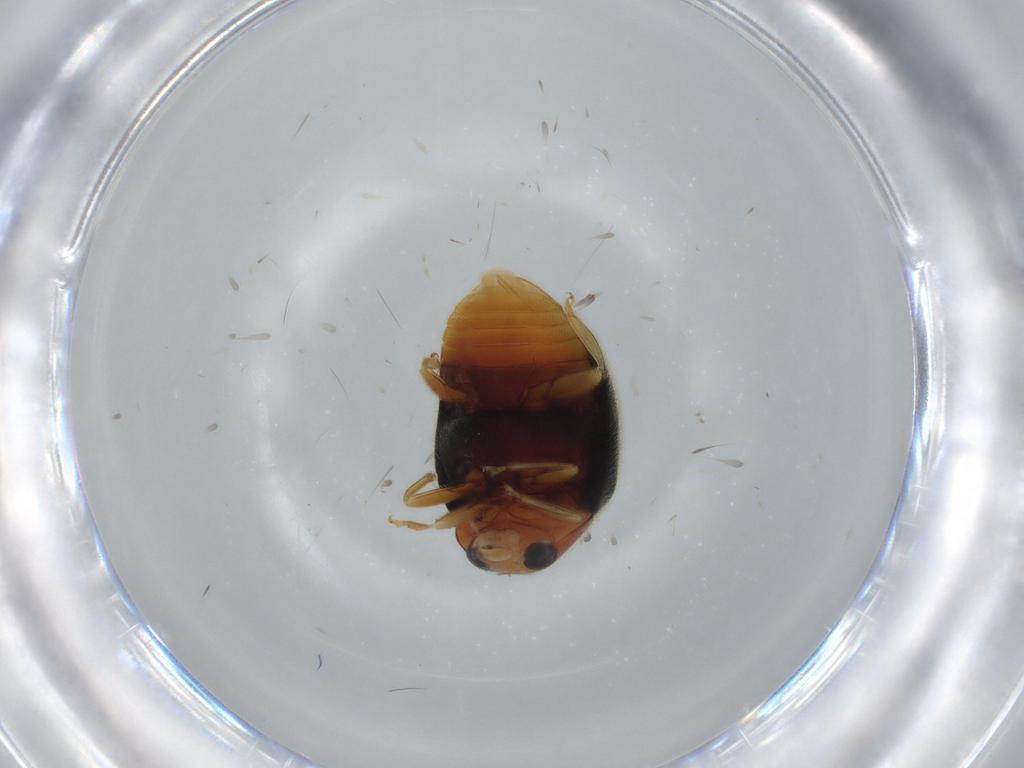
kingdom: Animalia
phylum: Arthropoda
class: Insecta
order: Coleoptera
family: Coccinellidae
